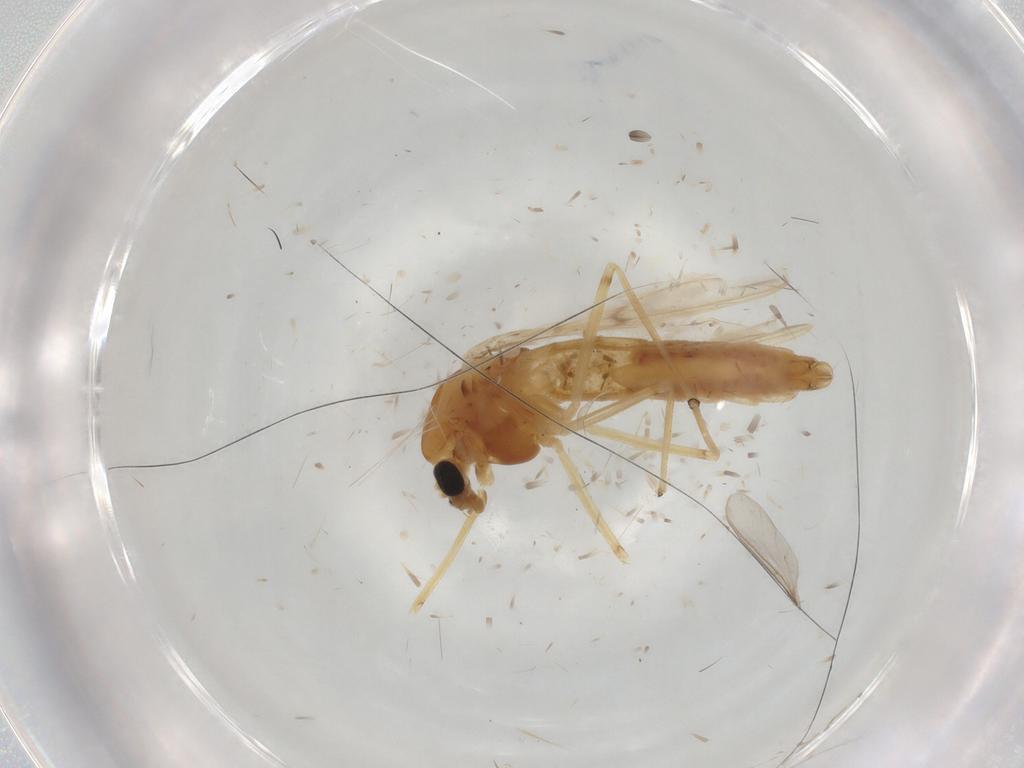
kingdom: Animalia
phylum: Arthropoda
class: Insecta
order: Diptera
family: Chironomidae
